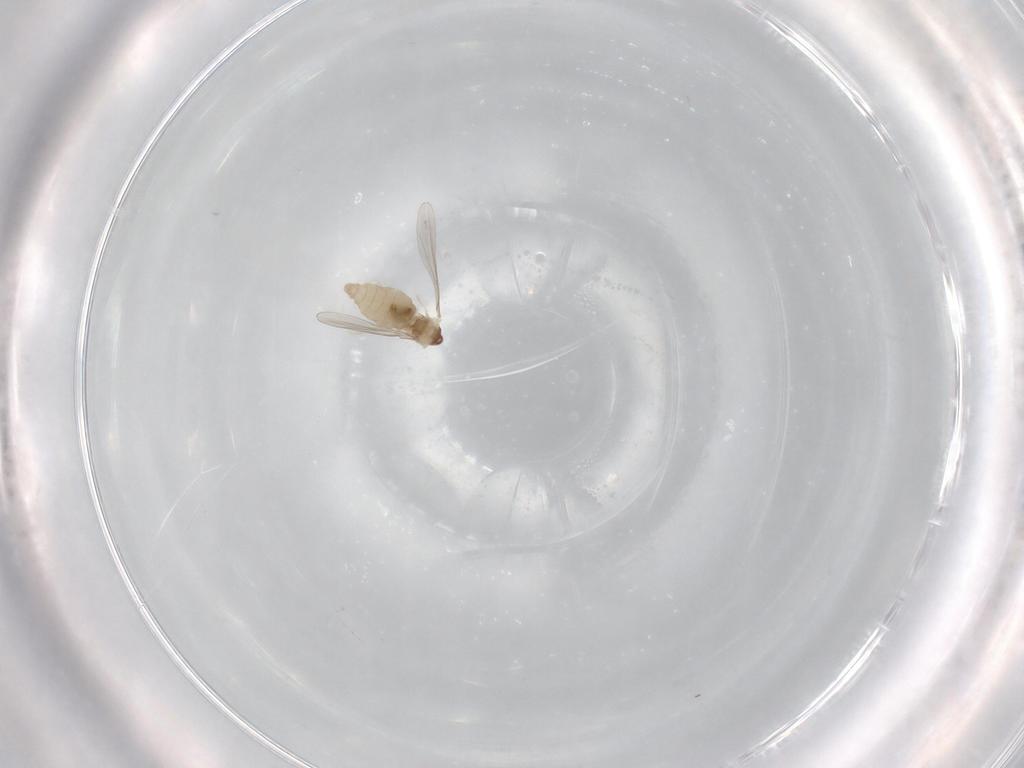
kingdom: Animalia
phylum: Arthropoda
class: Insecta
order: Diptera
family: Cecidomyiidae
